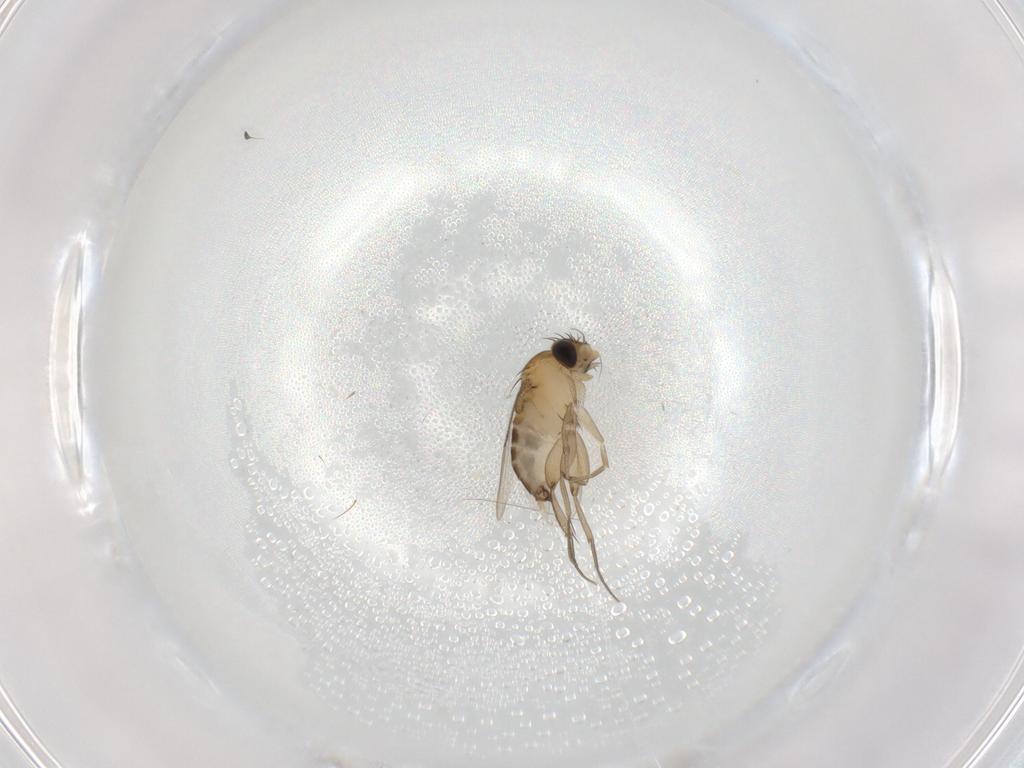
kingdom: Animalia
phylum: Arthropoda
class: Insecta
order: Diptera
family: Phoridae
